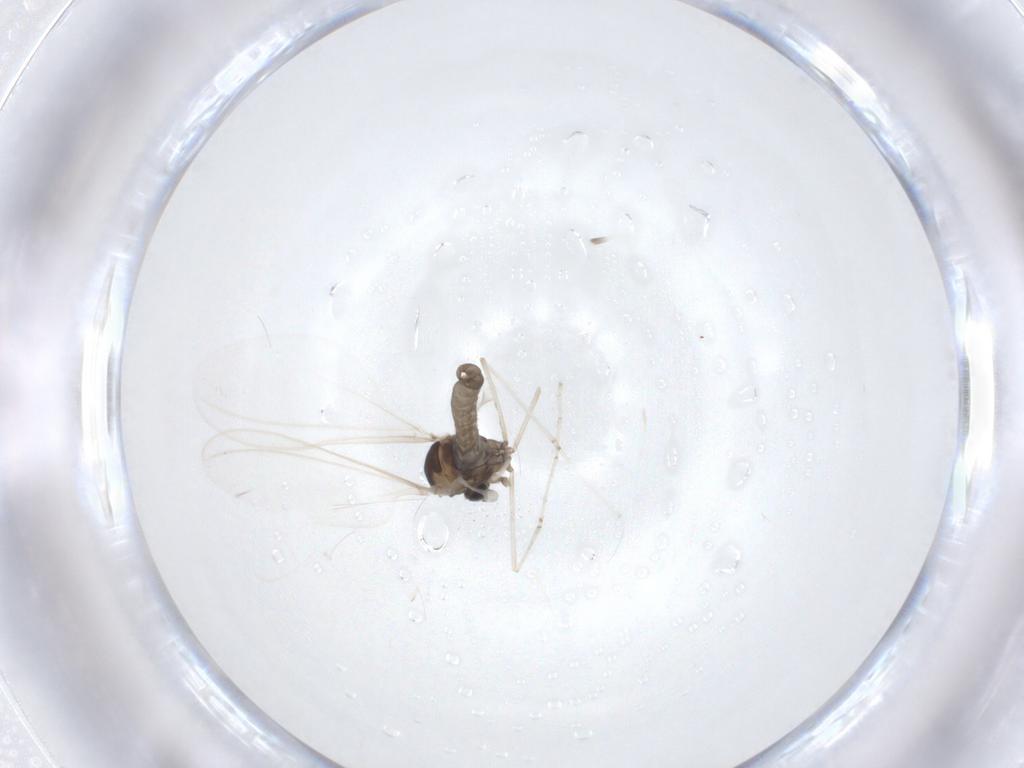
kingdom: Animalia
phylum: Arthropoda
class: Insecta
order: Diptera
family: Cecidomyiidae
